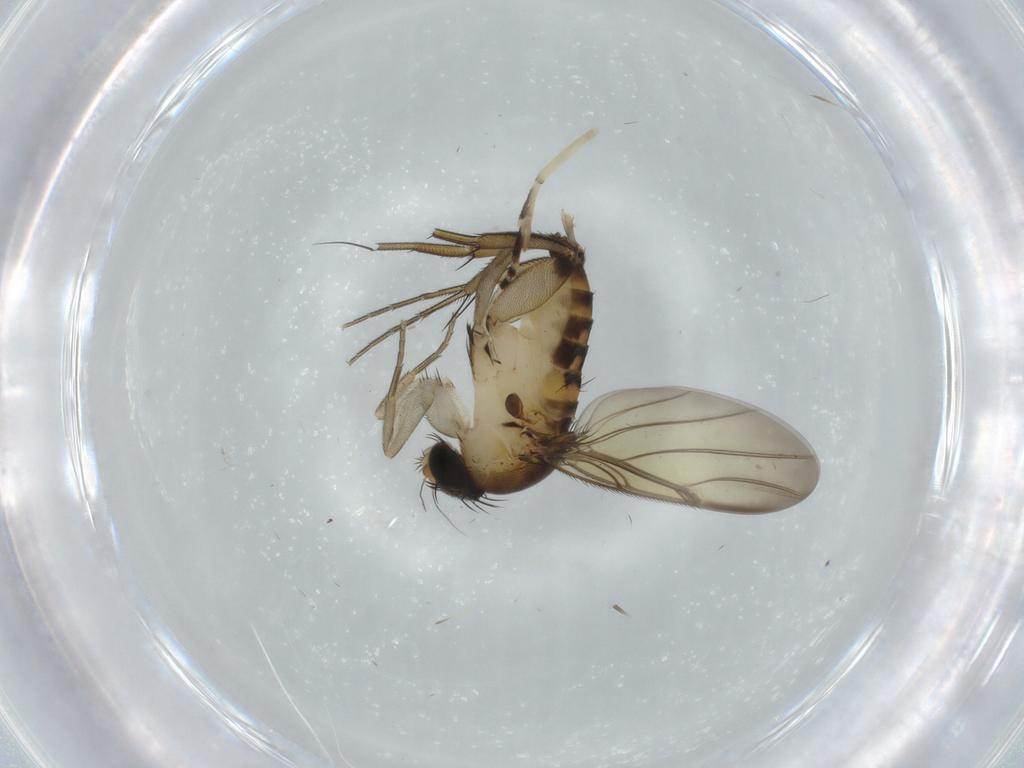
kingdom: Animalia
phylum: Arthropoda
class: Insecta
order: Diptera
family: Phoridae
